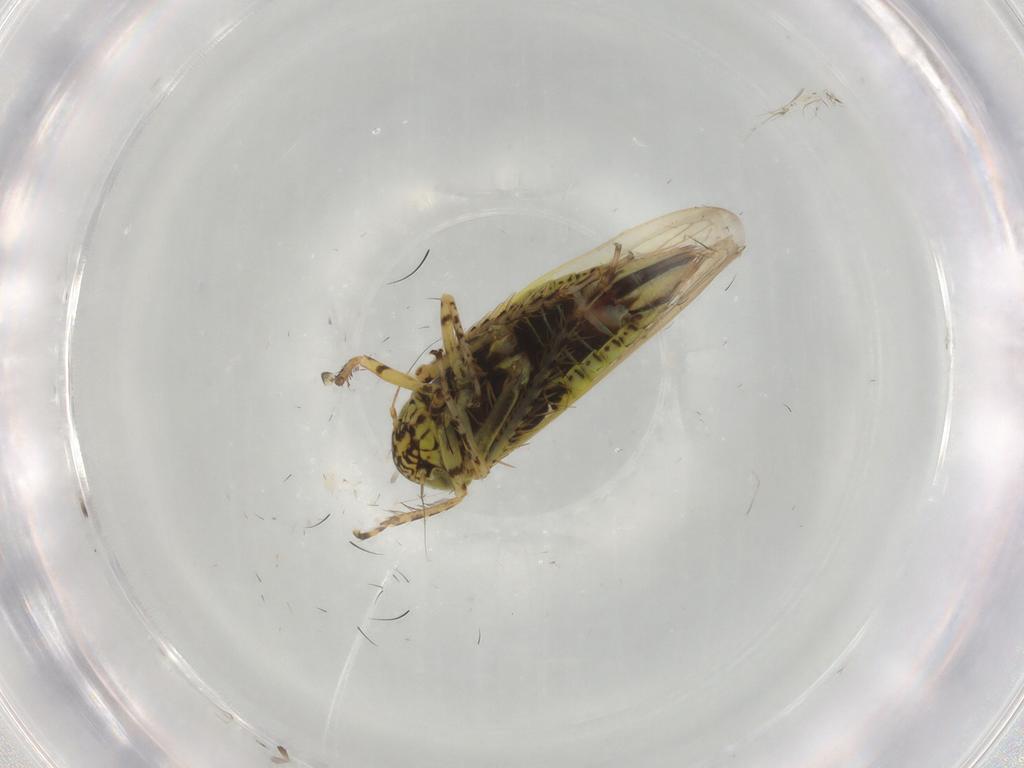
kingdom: Animalia
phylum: Arthropoda
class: Insecta
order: Hemiptera
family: Cicadellidae
